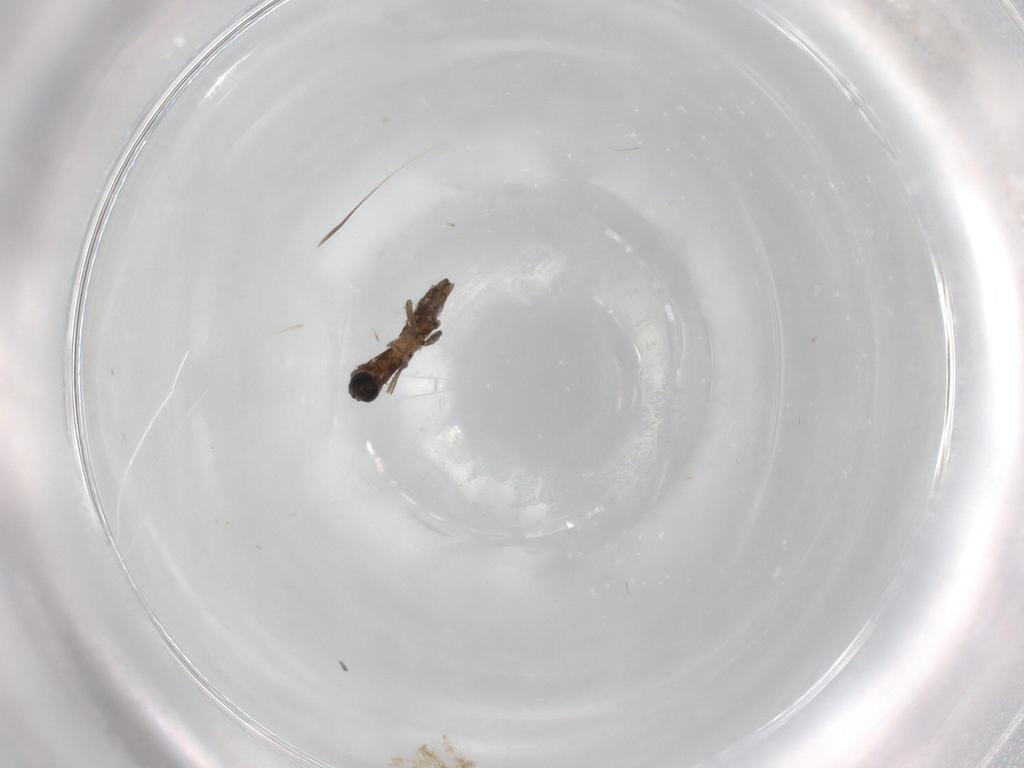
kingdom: Animalia
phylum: Arthropoda
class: Insecta
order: Diptera
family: Sciaridae
